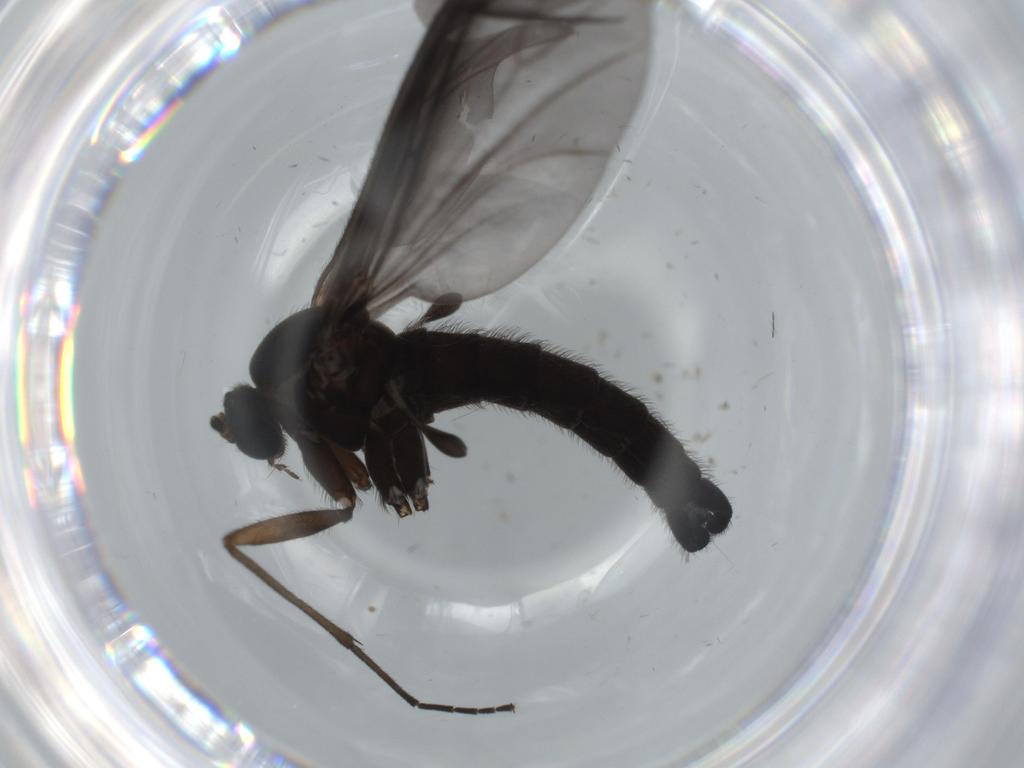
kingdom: Animalia
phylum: Arthropoda
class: Insecta
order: Diptera
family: Sciaridae
